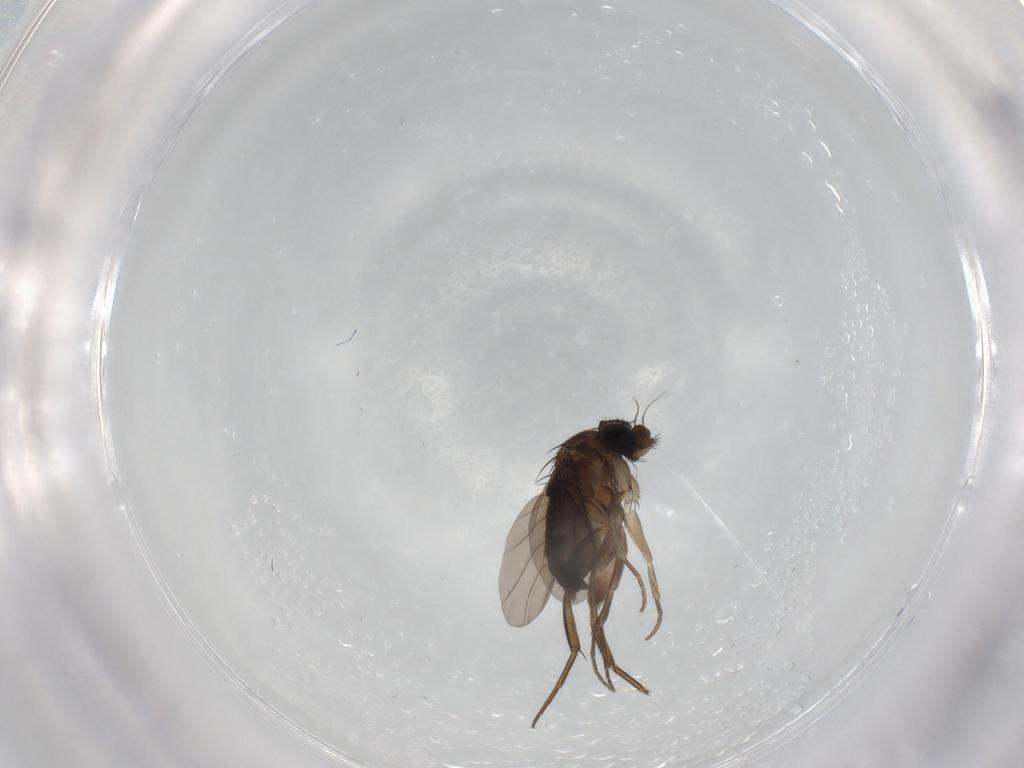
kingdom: Animalia
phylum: Arthropoda
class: Insecta
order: Diptera
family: Phoridae
